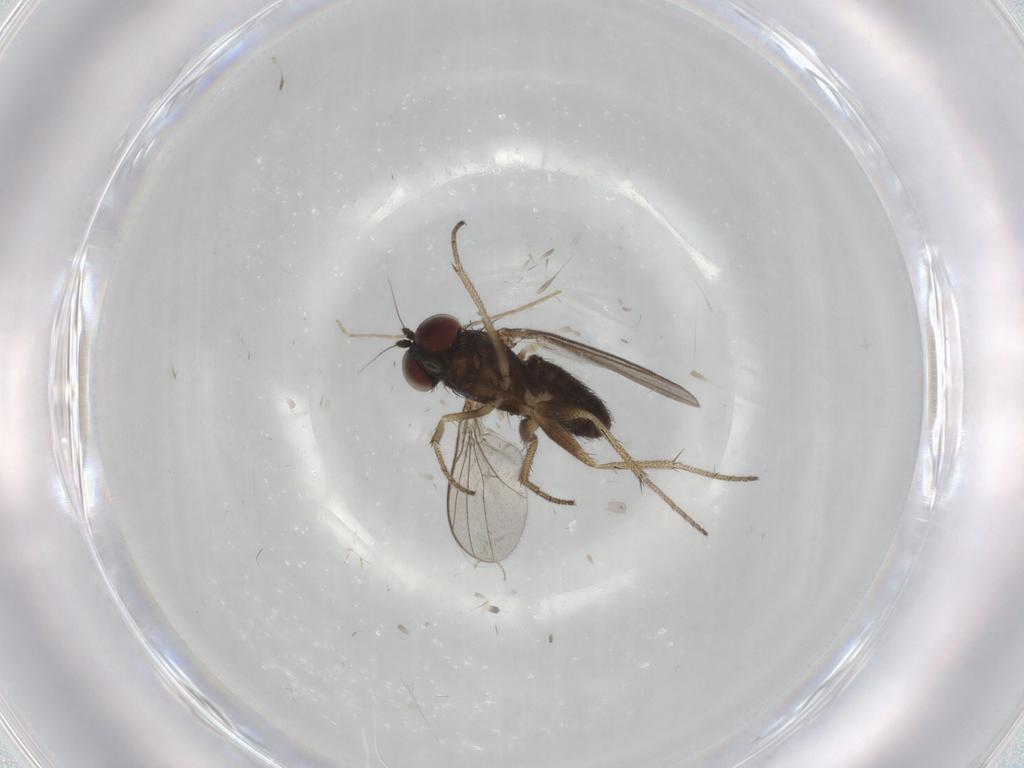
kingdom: Animalia
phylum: Arthropoda
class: Insecta
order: Diptera
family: Dolichopodidae
